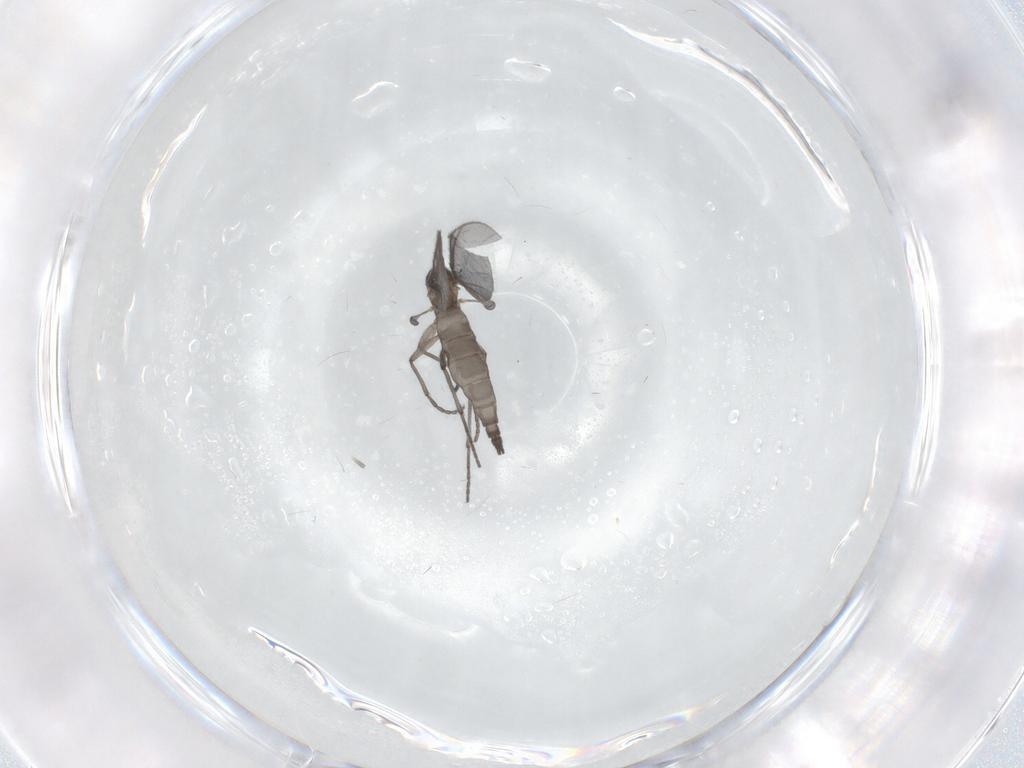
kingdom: Animalia
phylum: Arthropoda
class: Insecta
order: Diptera
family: Sciaridae
